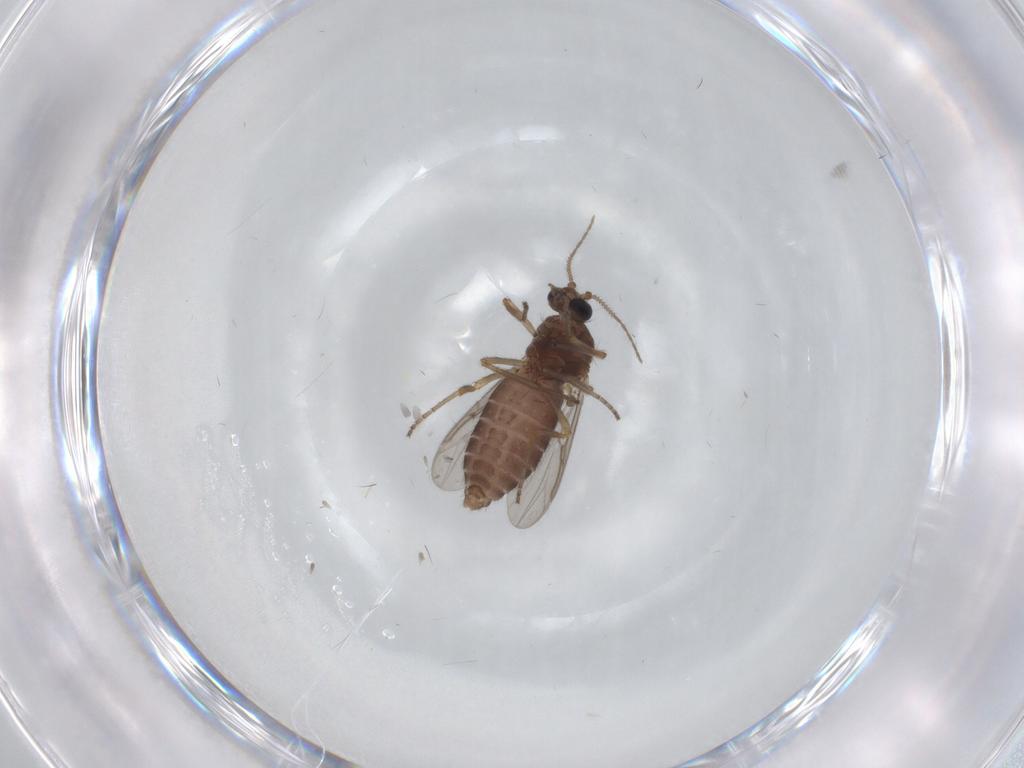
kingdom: Animalia
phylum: Arthropoda
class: Insecta
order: Diptera
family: Ceratopogonidae
